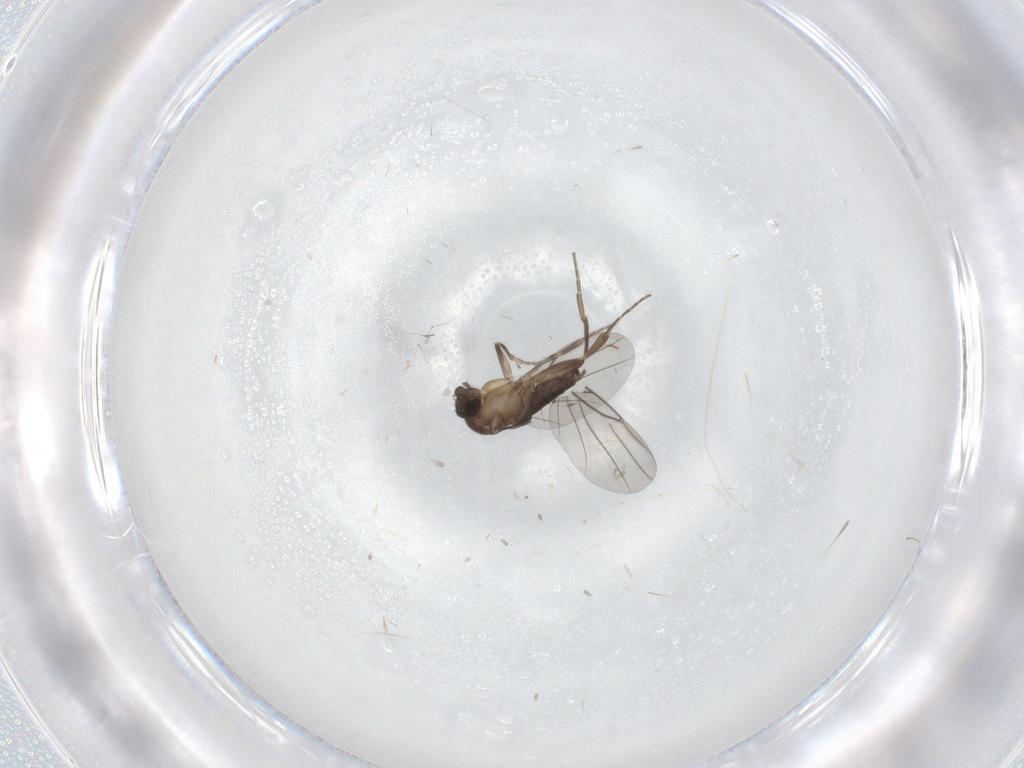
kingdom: Animalia
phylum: Arthropoda
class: Insecta
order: Diptera
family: Phoridae
